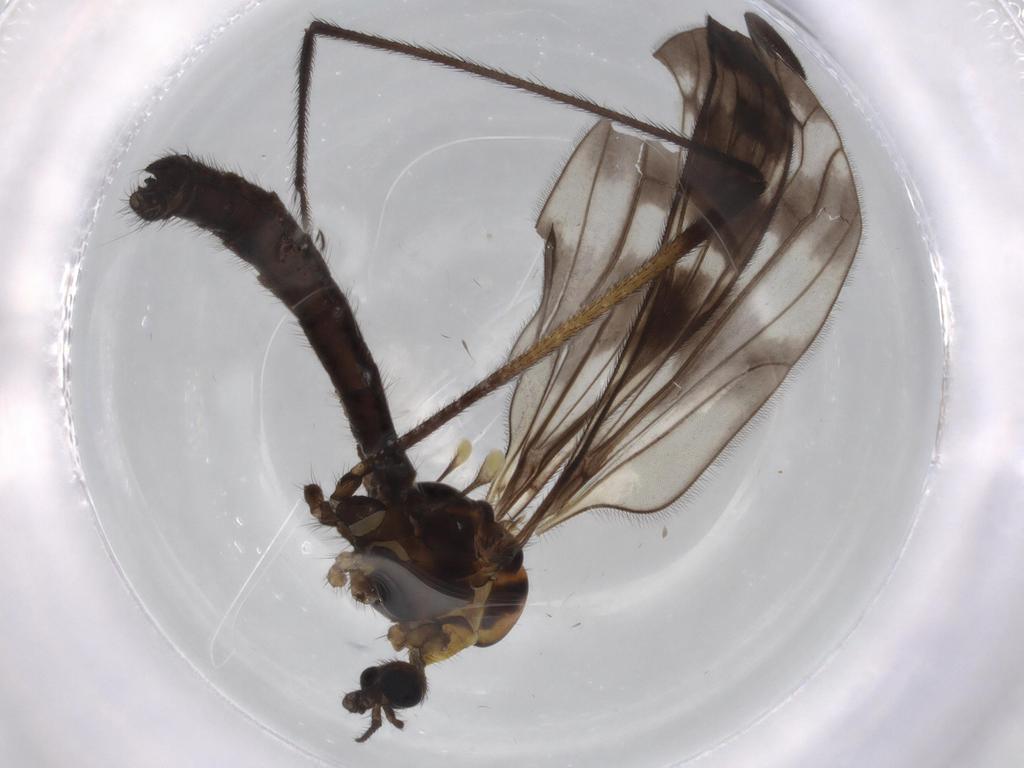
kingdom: Animalia
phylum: Arthropoda
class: Insecta
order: Diptera
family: Limoniidae
